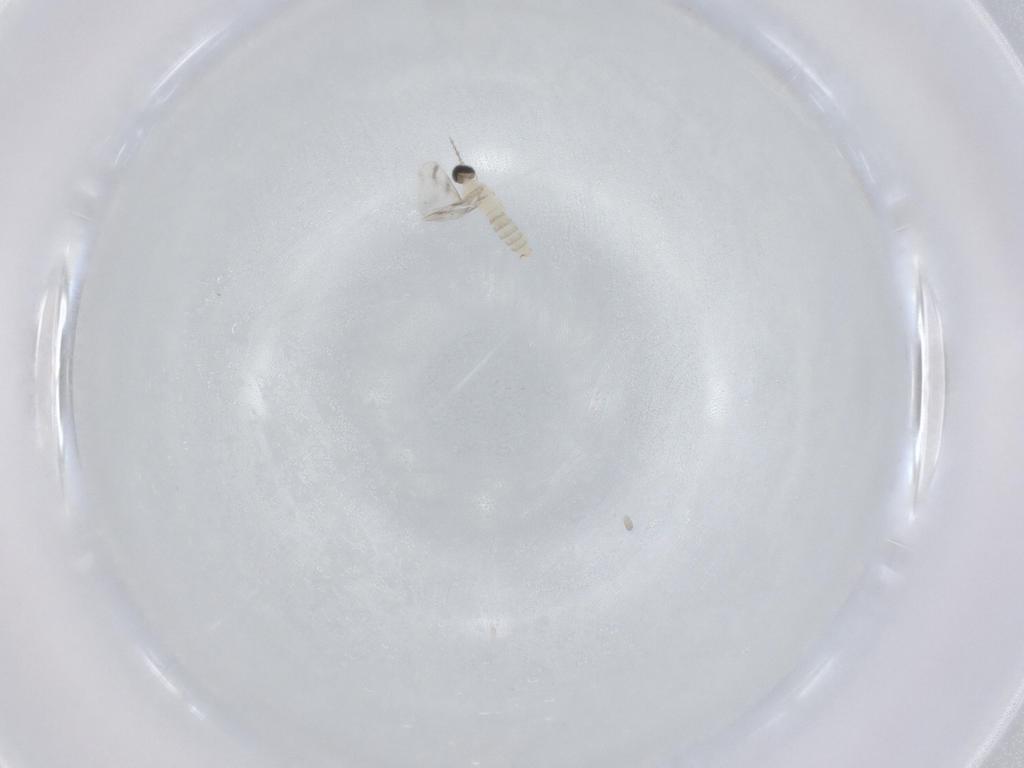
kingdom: Animalia
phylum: Arthropoda
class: Insecta
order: Diptera
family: Cecidomyiidae
